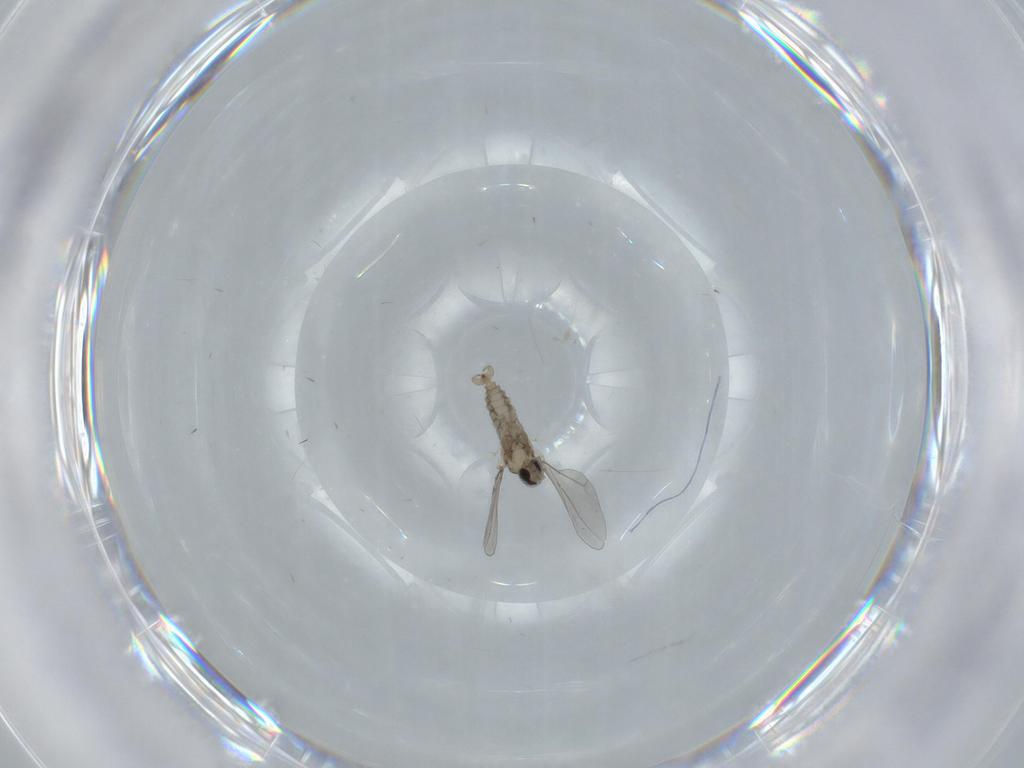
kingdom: Animalia
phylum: Arthropoda
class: Insecta
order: Diptera
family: Cecidomyiidae
